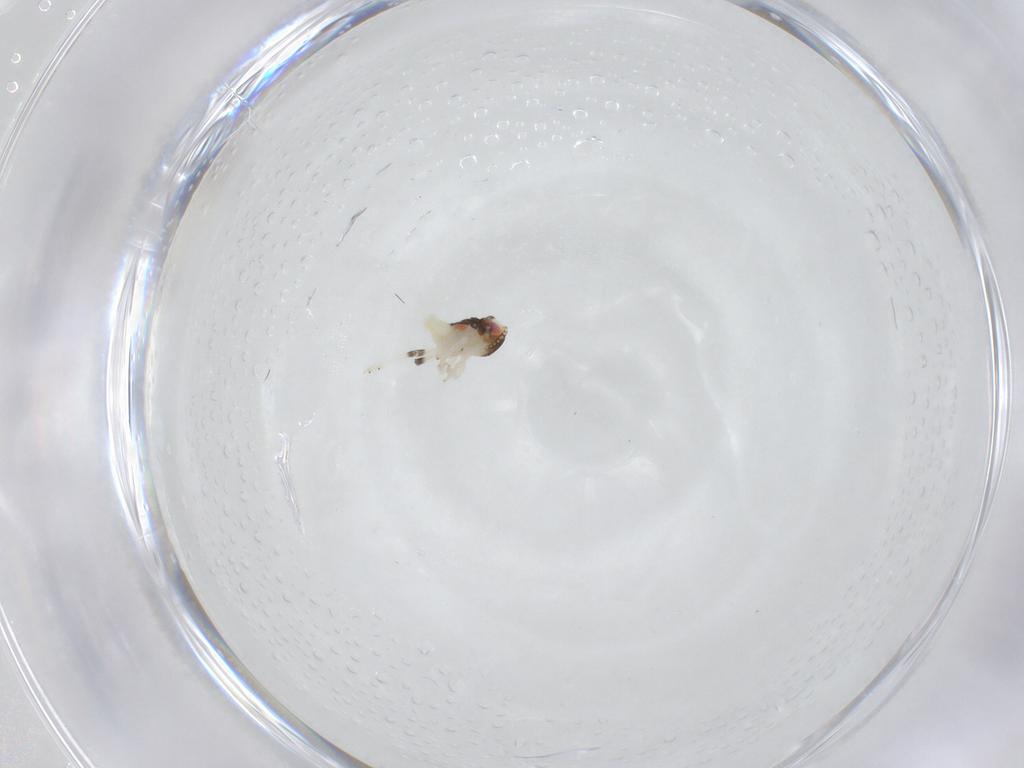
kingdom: Animalia
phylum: Arthropoda
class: Insecta
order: Hemiptera
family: Nogodinidae
